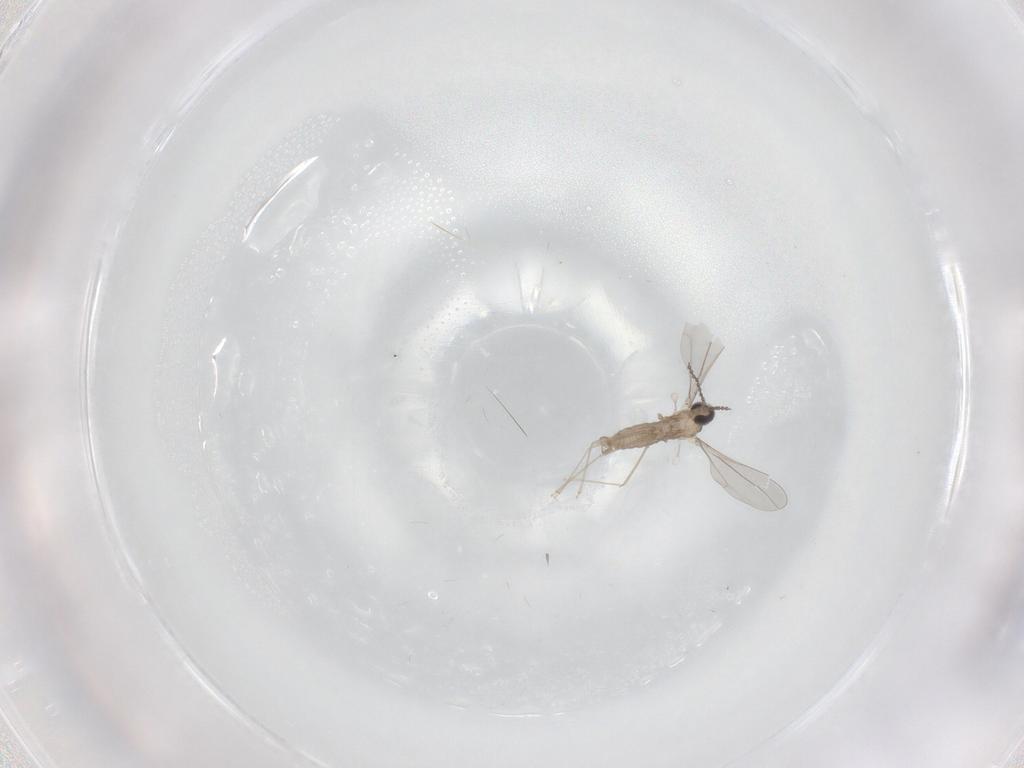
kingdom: Animalia
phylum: Arthropoda
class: Insecta
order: Diptera
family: Cecidomyiidae
